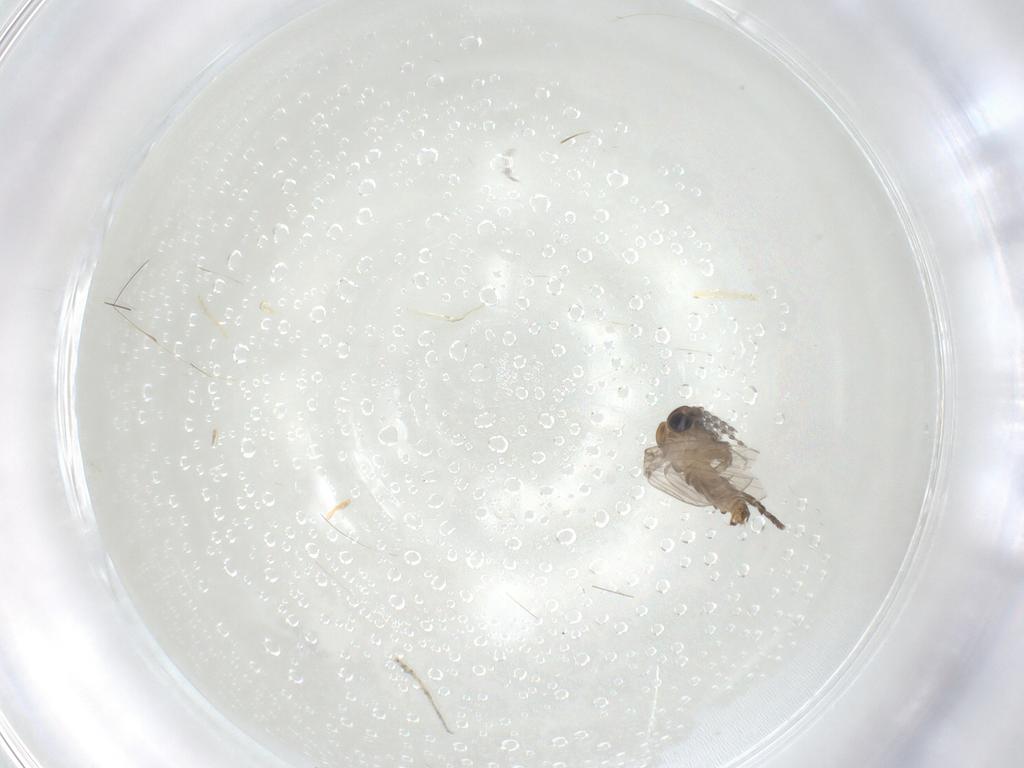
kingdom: Animalia
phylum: Arthropoda
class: Insecta
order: Diptera
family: Psychodidae
